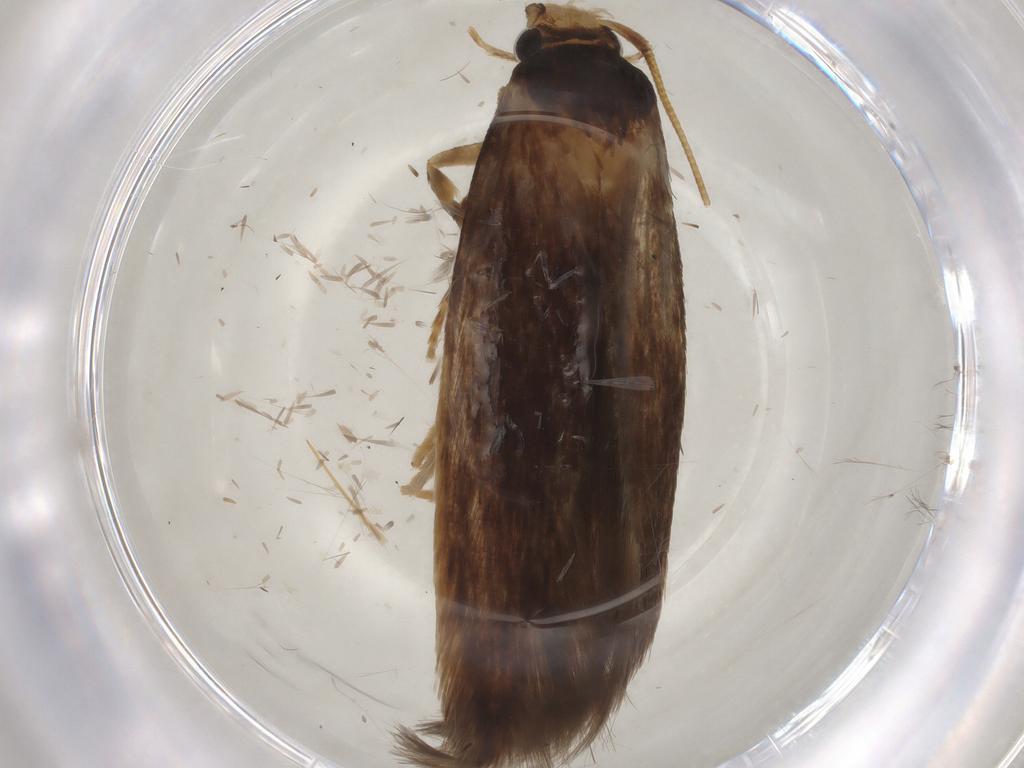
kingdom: Animalia
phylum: Arthropoda
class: Insecta
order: Lepidoptera
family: Tineidae
